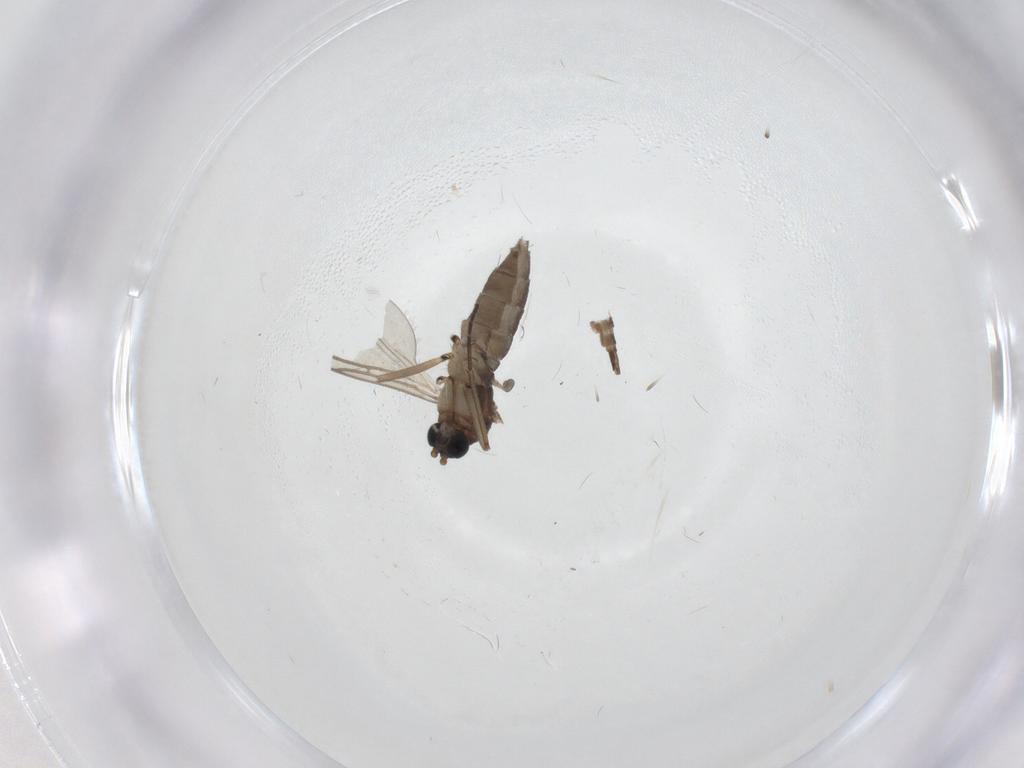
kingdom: Animalia
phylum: Arthropoda
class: Insecta
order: Diptera
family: Sciaridae
